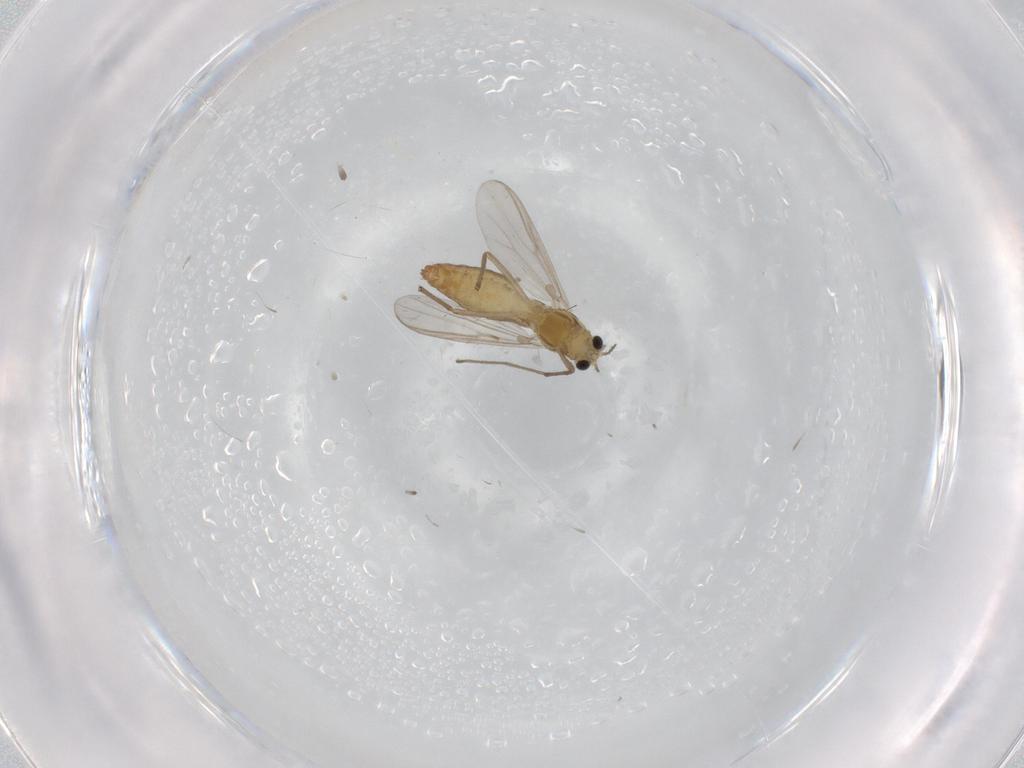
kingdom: Animalia
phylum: Arthropoda
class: Insecta
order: Diptera
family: Chironomidae
